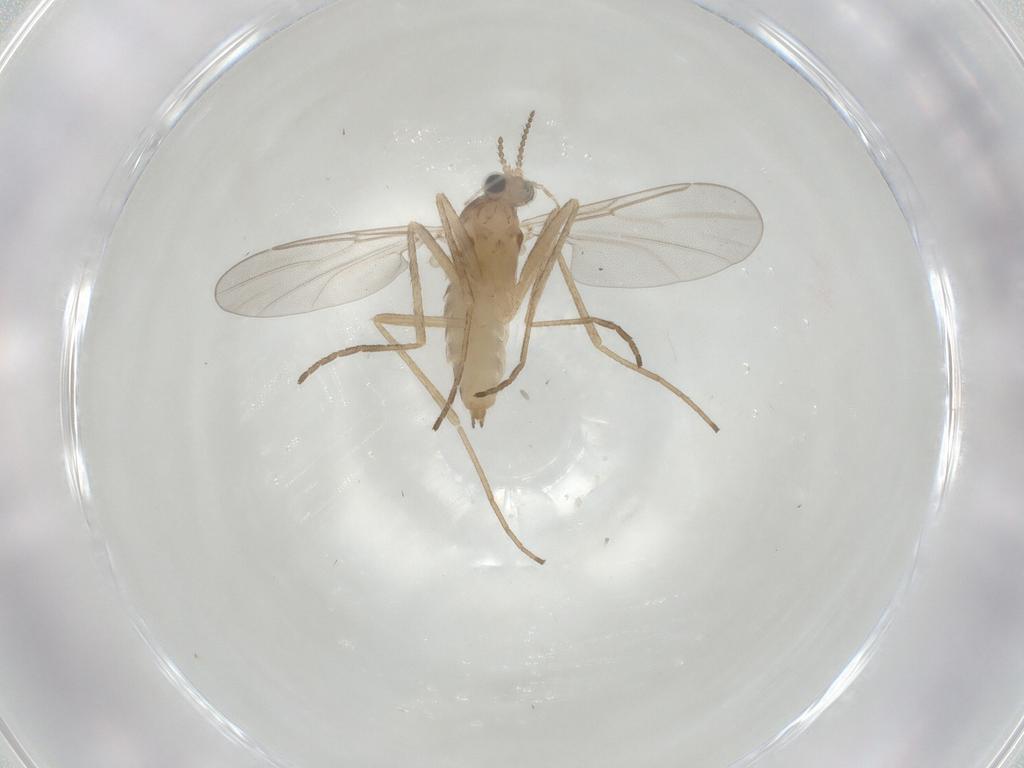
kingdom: Animalia
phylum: Arthropoda
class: Insecta
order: Diptera
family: Cecidomyiidae
